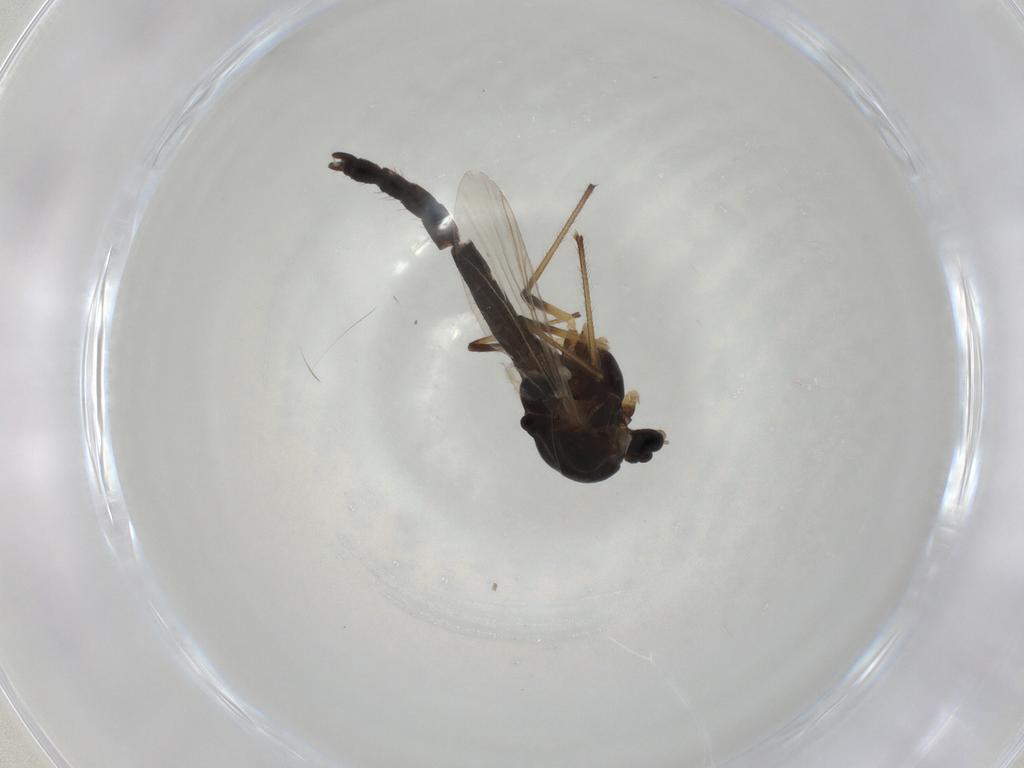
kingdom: Animalia
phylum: Arthropoda
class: Insecta
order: Diptera
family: Muscidae
